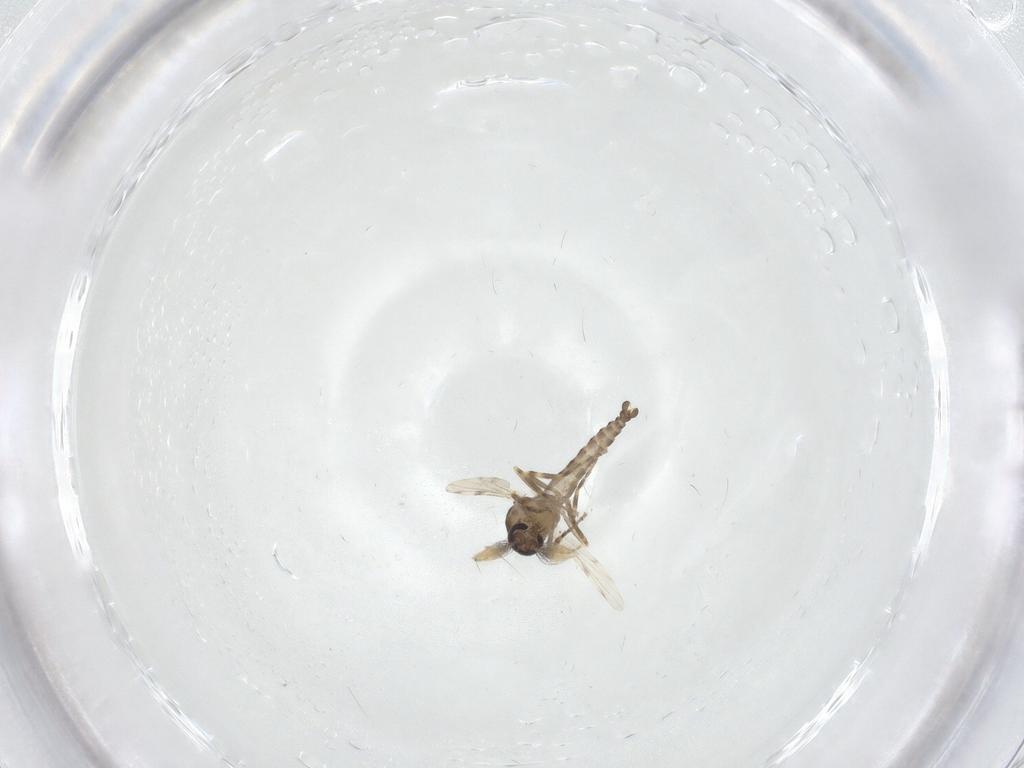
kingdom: Animalia
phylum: Arthropoda
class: Insecta
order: Diptera
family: Ceratopogonidae
